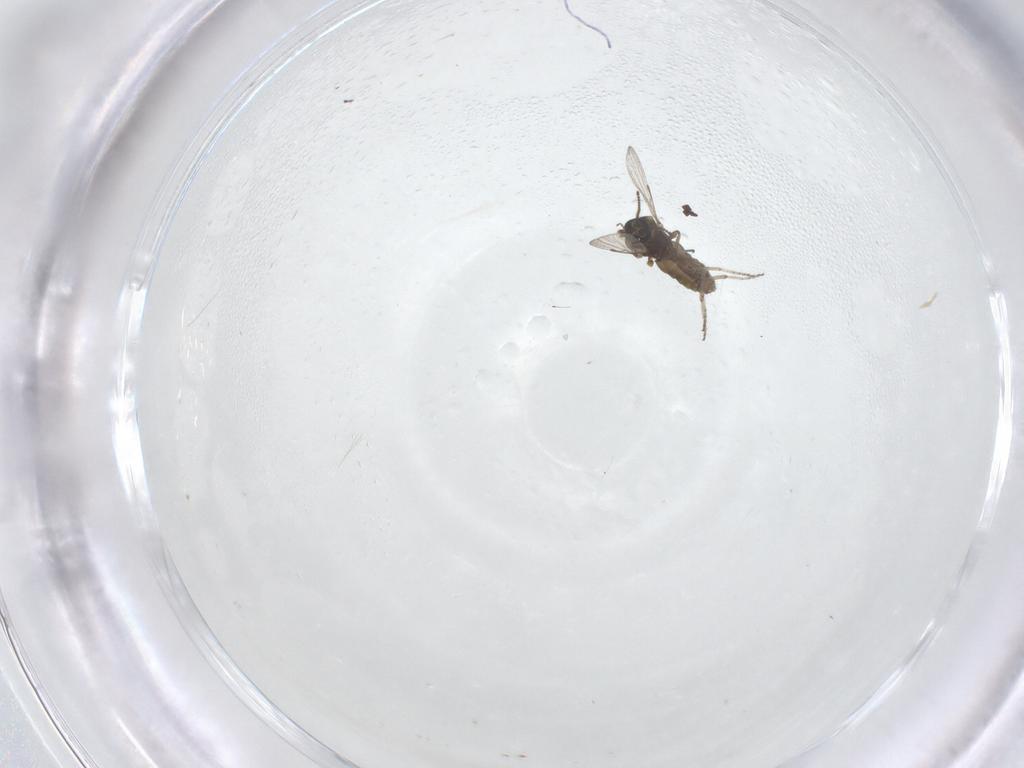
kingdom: Animalia
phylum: Arthropoda
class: Insecta
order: Diptera
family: Ceratopogonidae
